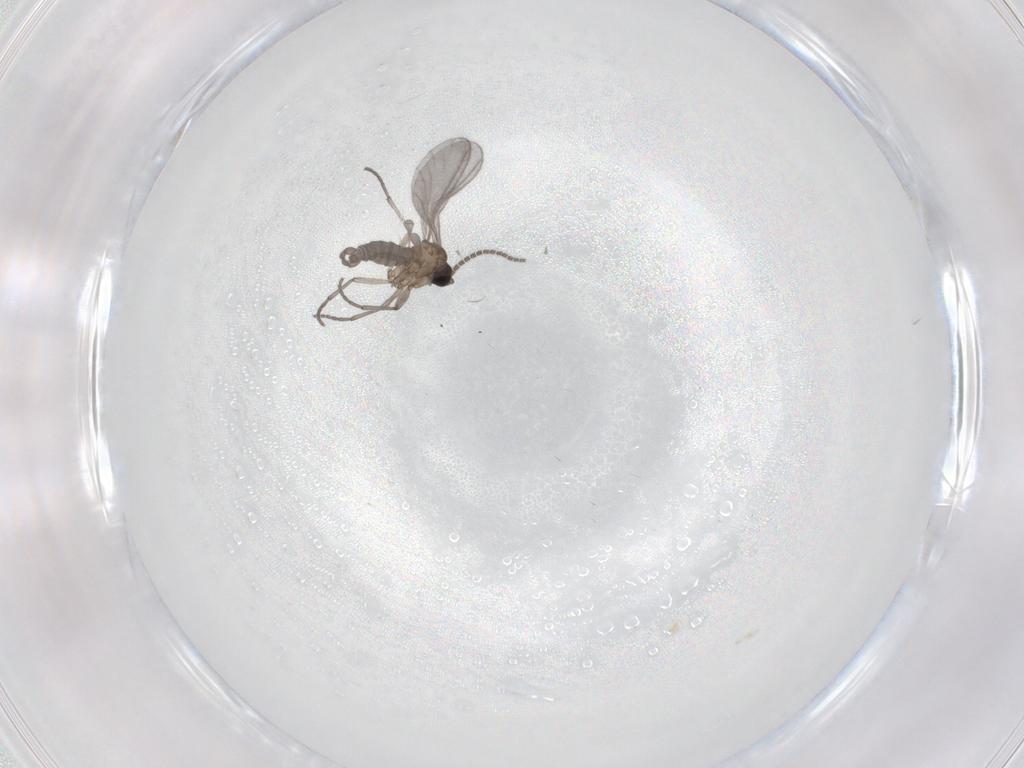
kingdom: Animalia
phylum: Arthropoda
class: Insecta
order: Diptera
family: Sciaridae
